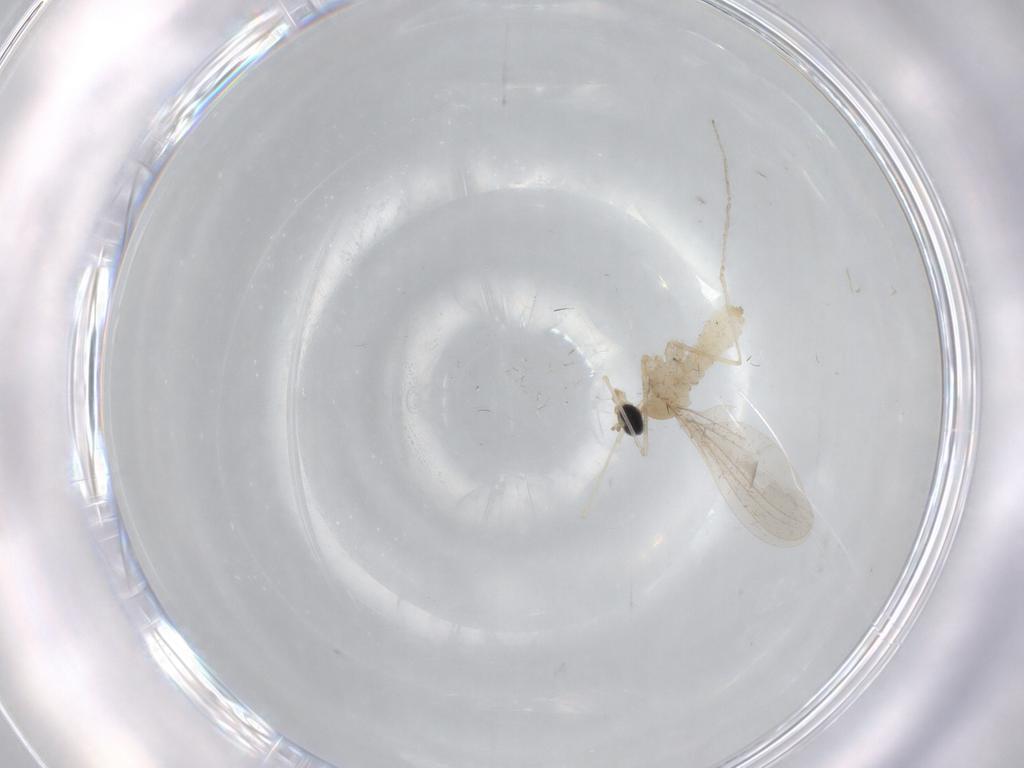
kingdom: Animalia
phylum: Arthropoda
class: Insecta
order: Diptera
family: Cecidomyiidae
